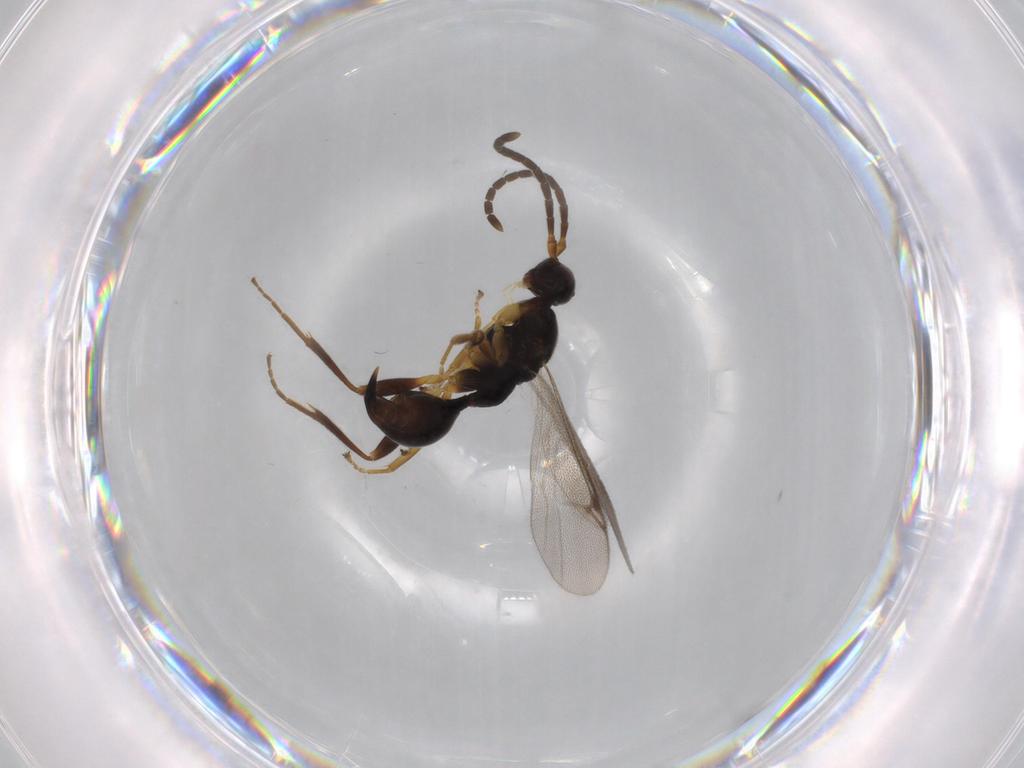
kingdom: Animalia
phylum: Arthropoda
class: Insecta
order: Hymenoptera
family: Proctotrupidae
